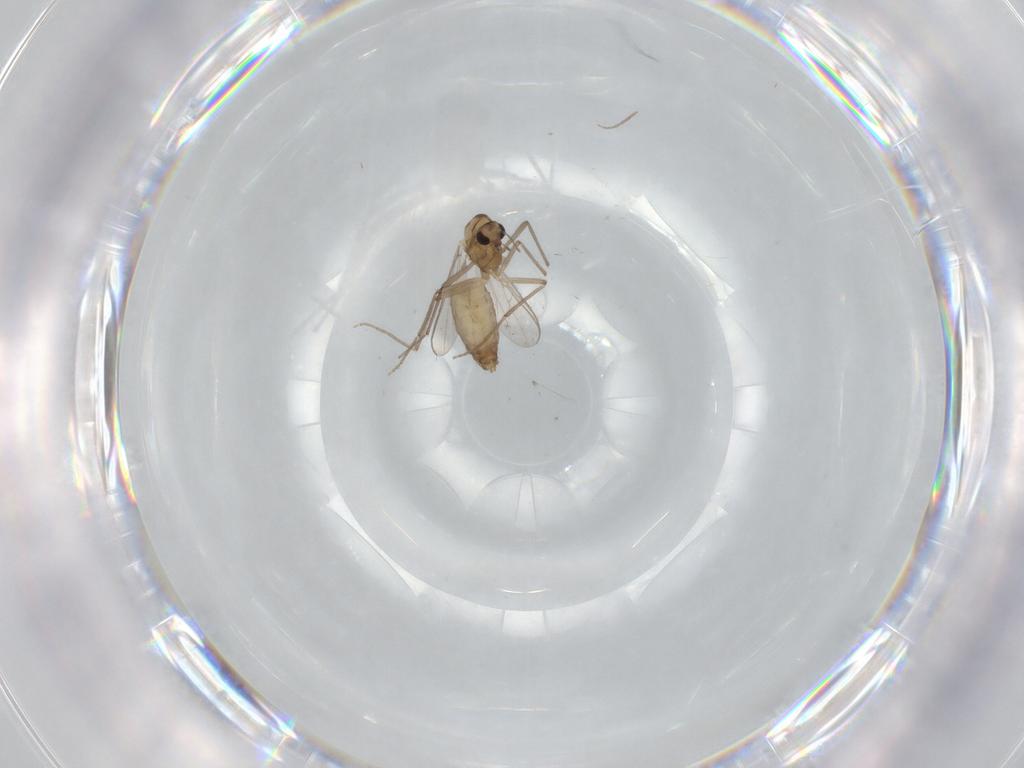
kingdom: Animalia
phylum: Arthropoda
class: Insecta
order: Diptera
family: Chironomidae
